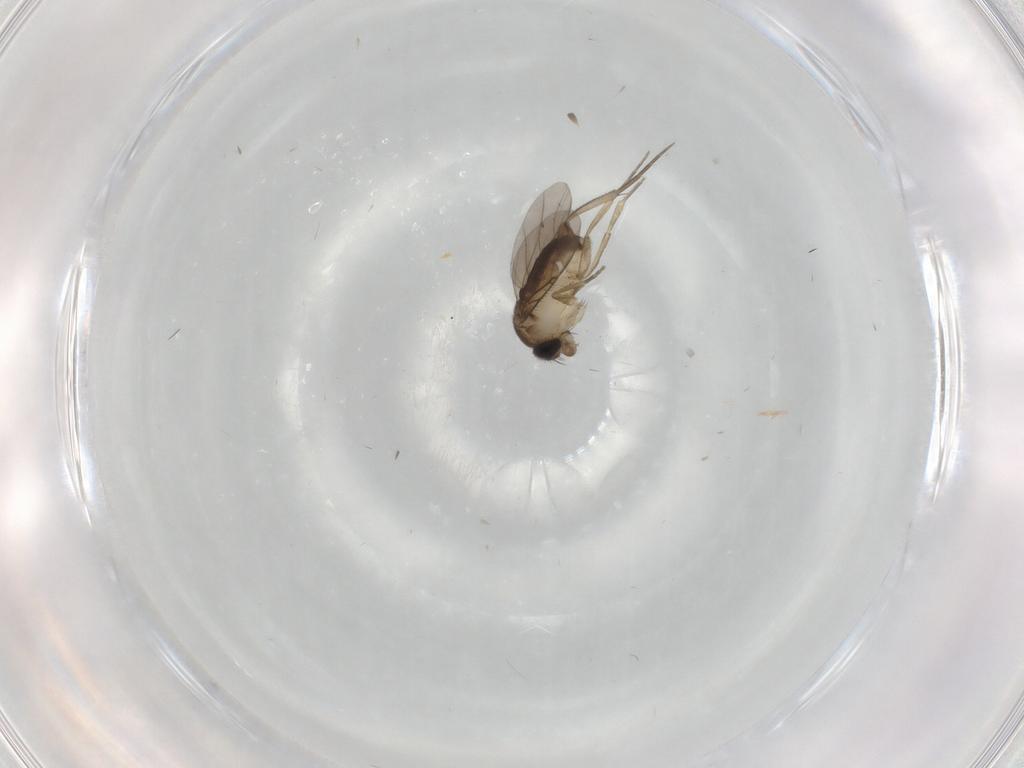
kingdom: Animalia
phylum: Arthropoda
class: Insecta
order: Diptera
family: Phoridae
